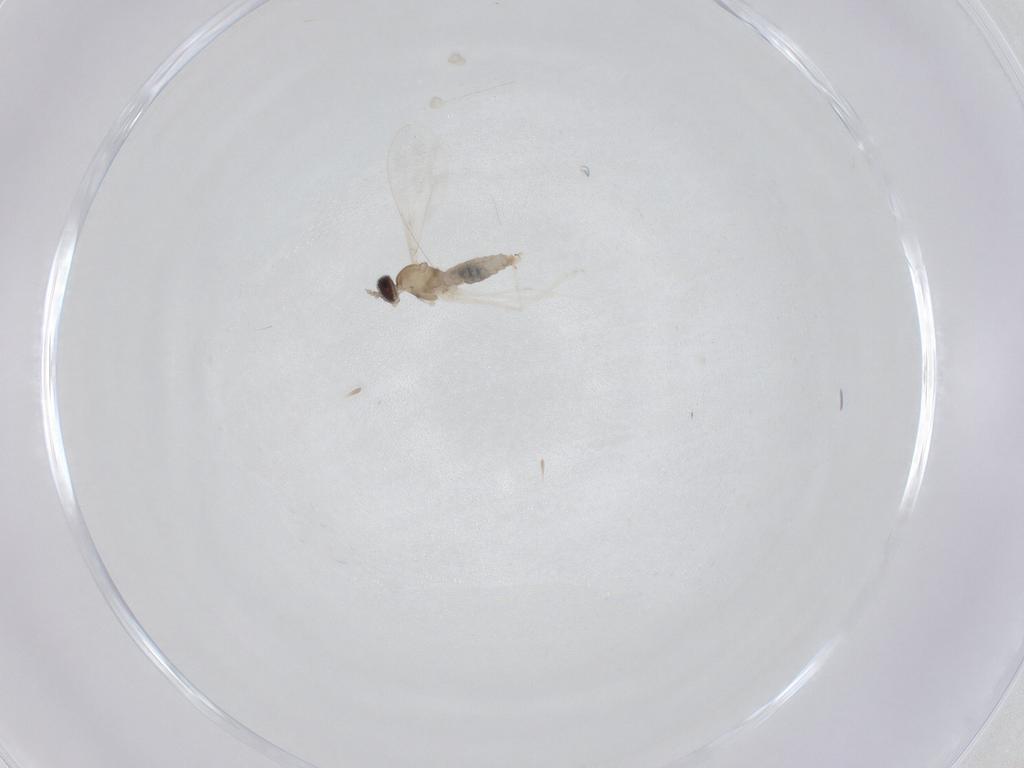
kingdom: Animalia
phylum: Arthropoda
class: Insecta
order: Diptera
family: Cecidomyiidae
